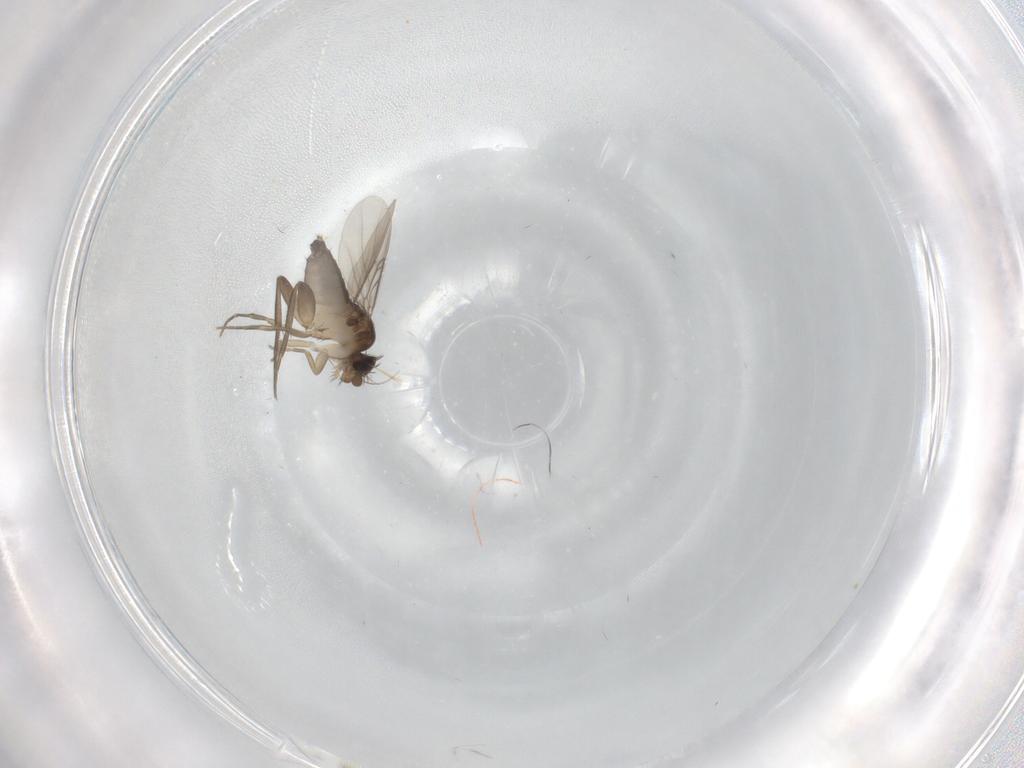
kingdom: Animalia
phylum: Arthropoda
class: Insecta
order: Diptera
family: Phoridae
